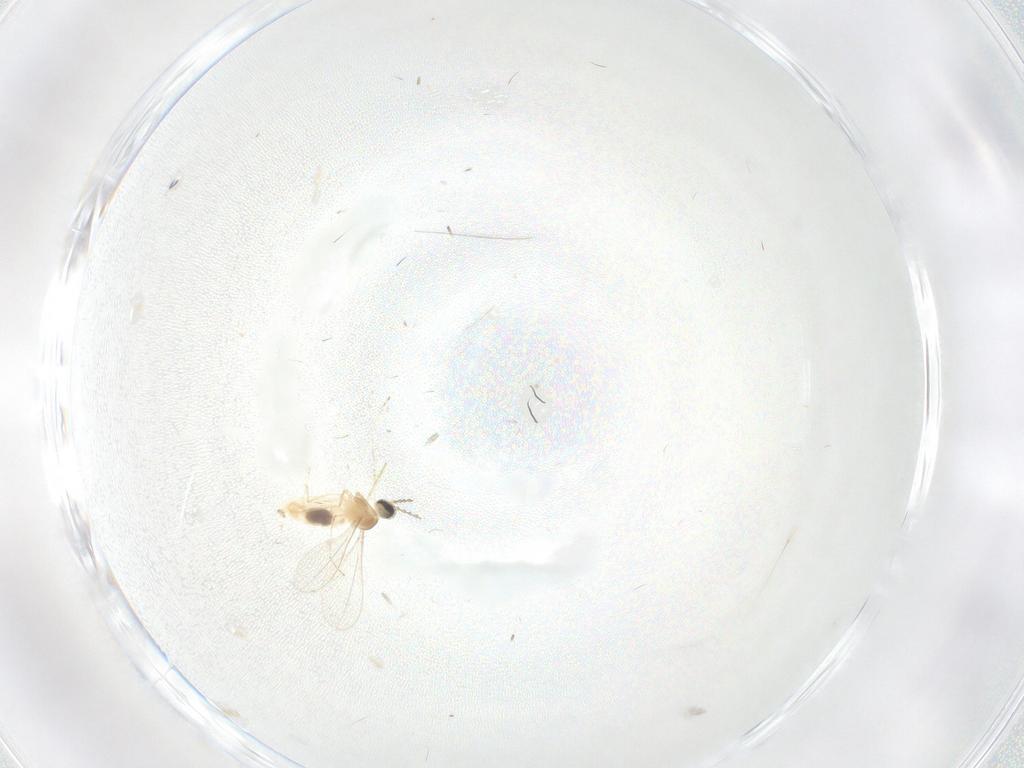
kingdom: Animalia
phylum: Arthropoda
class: Insecta
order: Diptera
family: Cecidomyiidae
